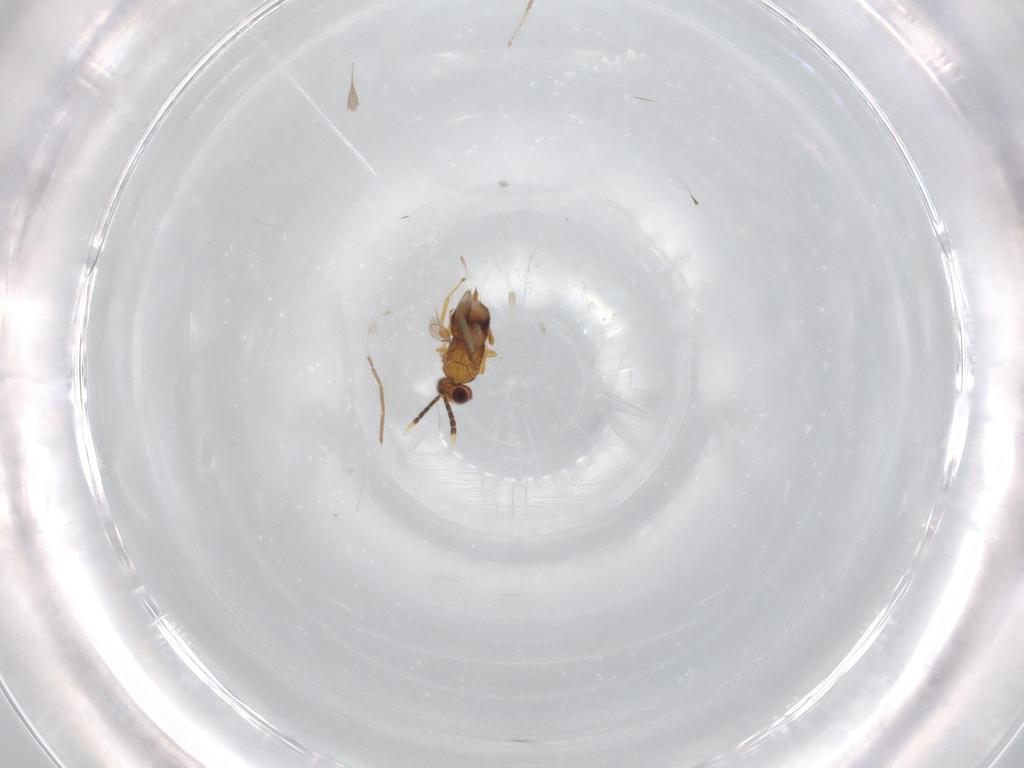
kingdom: Animalia
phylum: Arthropoda
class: Insecta
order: Hymenoptera
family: Aphelinidae
